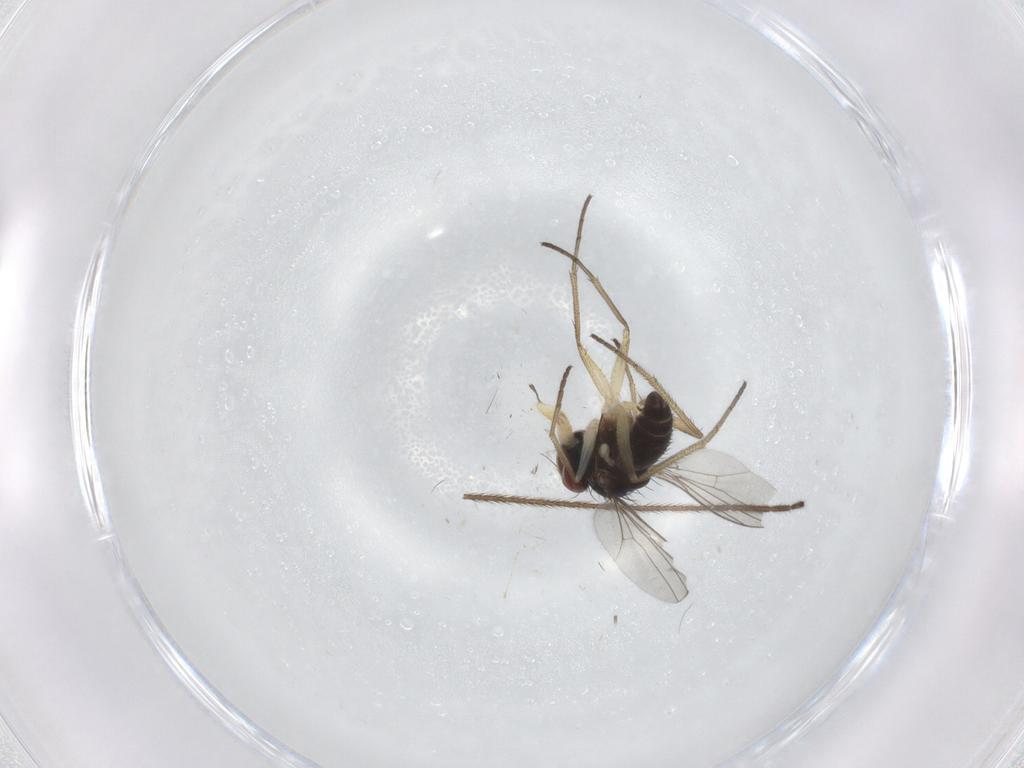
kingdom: Animalia
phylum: Arthropoda
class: Insecta
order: Diptera
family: Dolichopodidae
